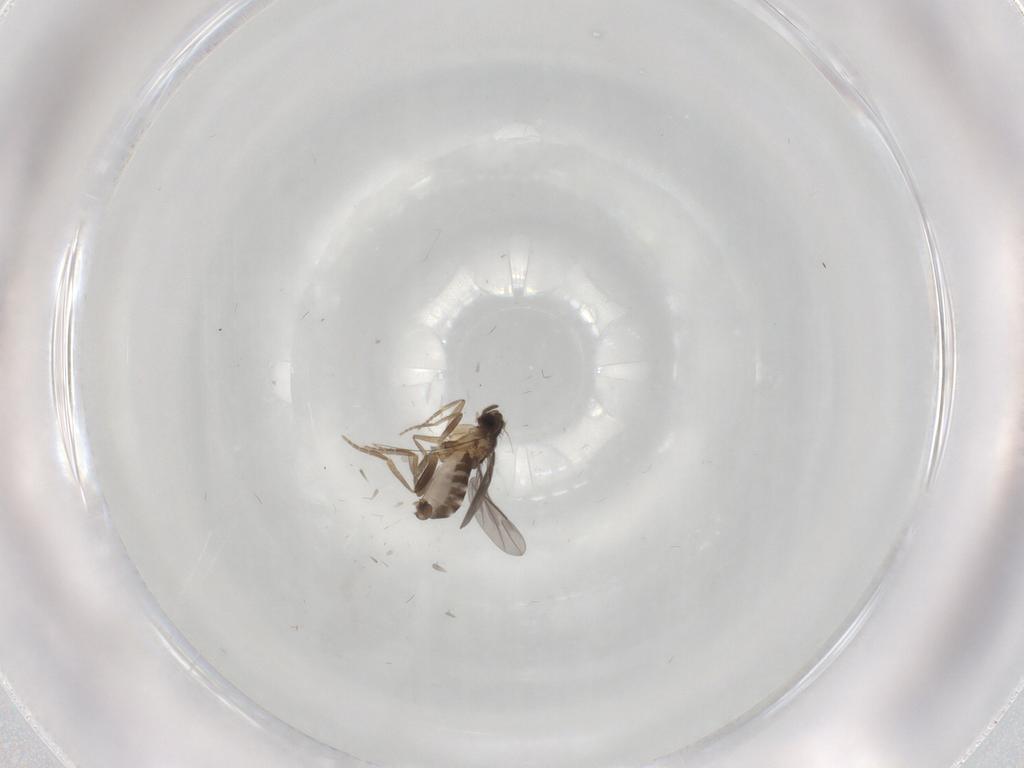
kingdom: Animalia
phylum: Arthropoda
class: Insecta
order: Diptera
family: Sciaridae
